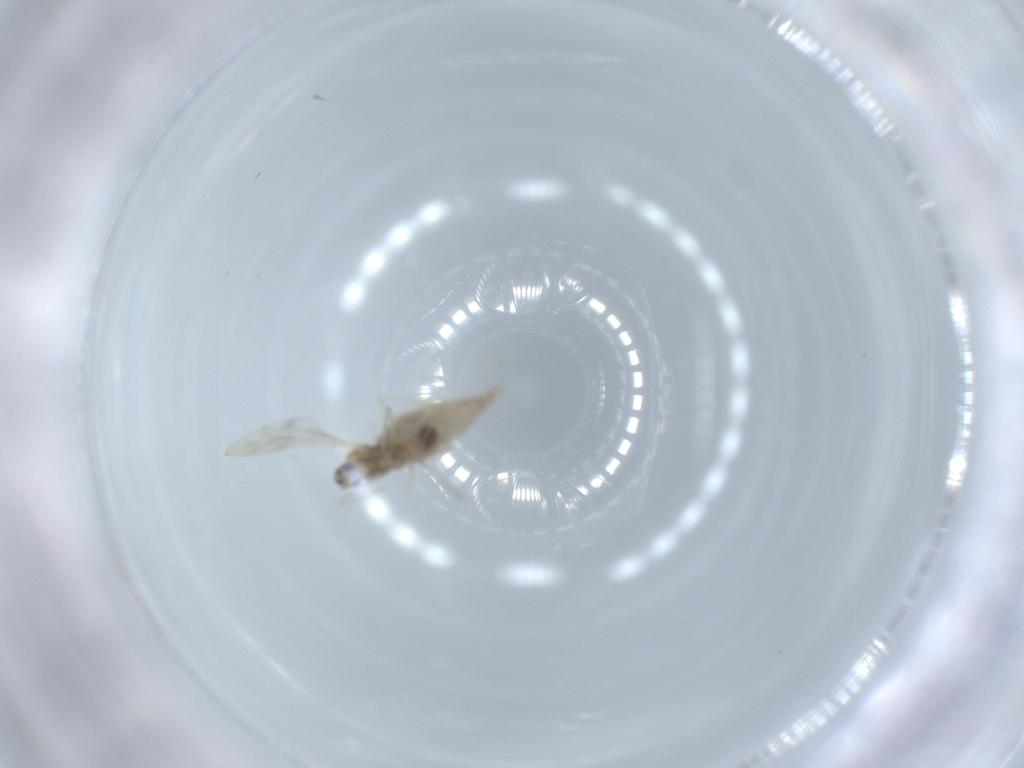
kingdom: Animalia
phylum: Arthropoda
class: Insecta
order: Diptera
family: Cecidomyiidae
